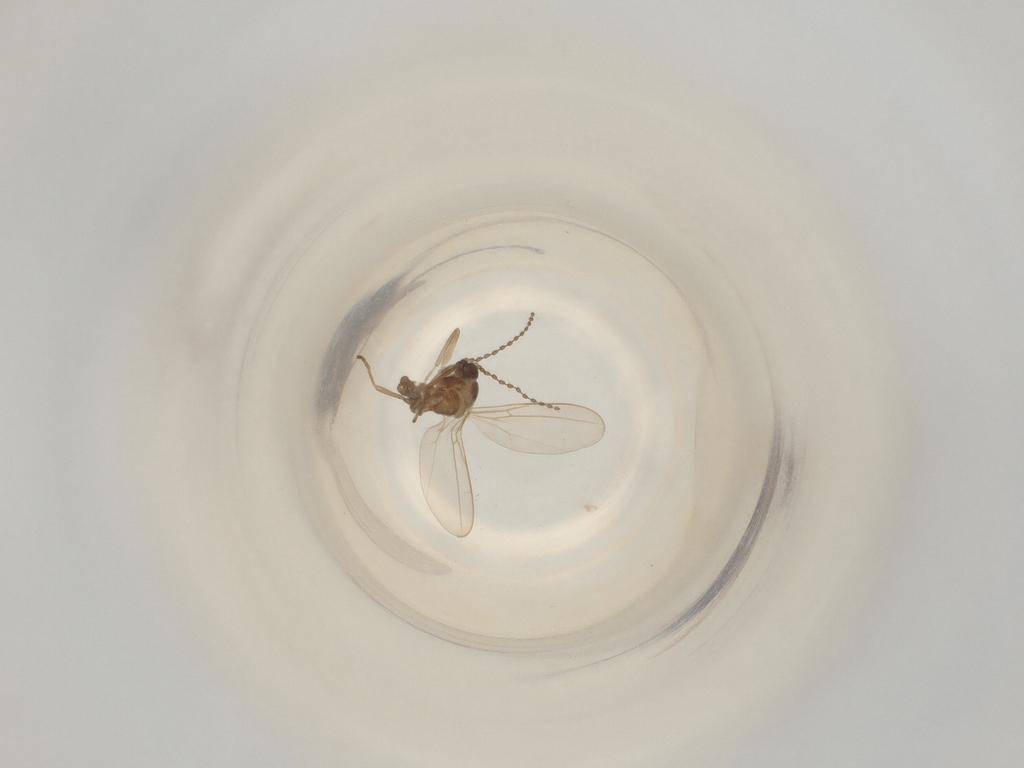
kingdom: Animalia
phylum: Arthropoda
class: Insecta
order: Diptera
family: Cecidomyiidae
